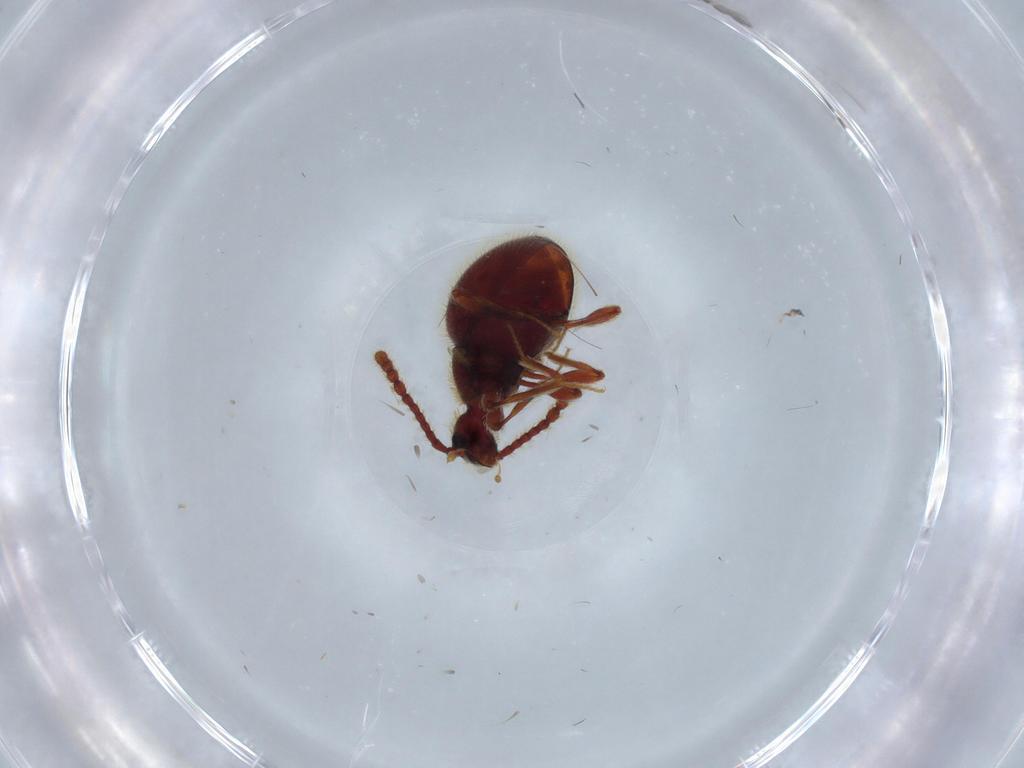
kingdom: Animalia
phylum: Arthropoda
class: Insecta
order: Coleoptera
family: Staphylinidae
